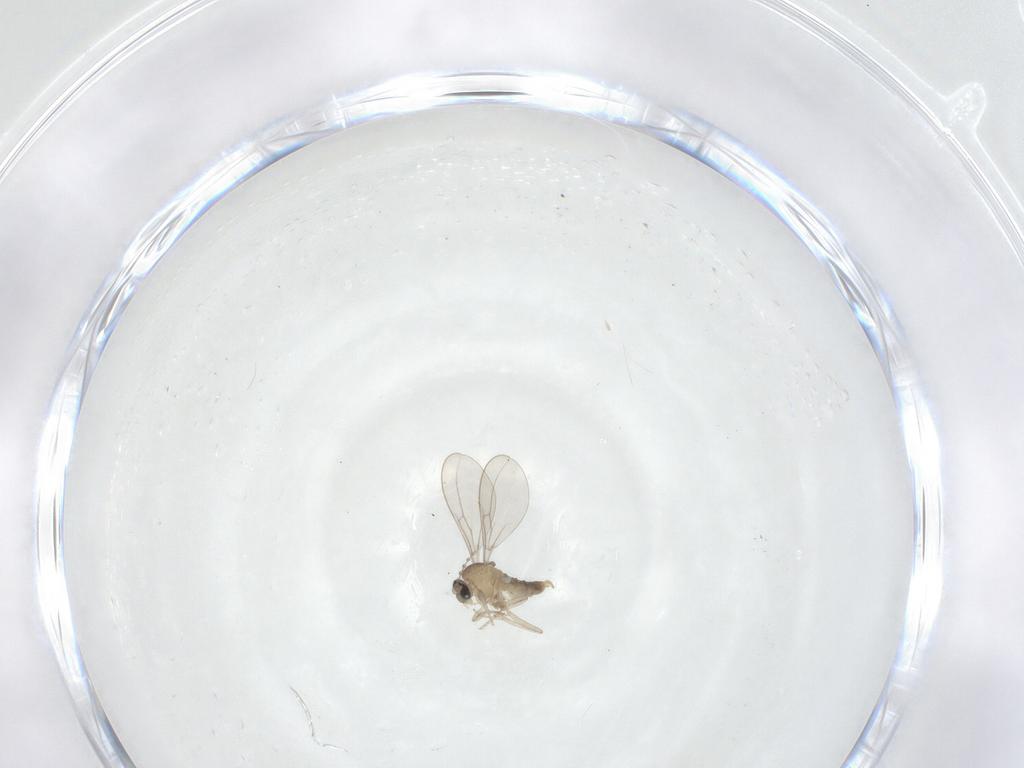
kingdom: Animalia
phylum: Arthropoda
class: Insecta
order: Diptera
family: Cecidomyiidae
